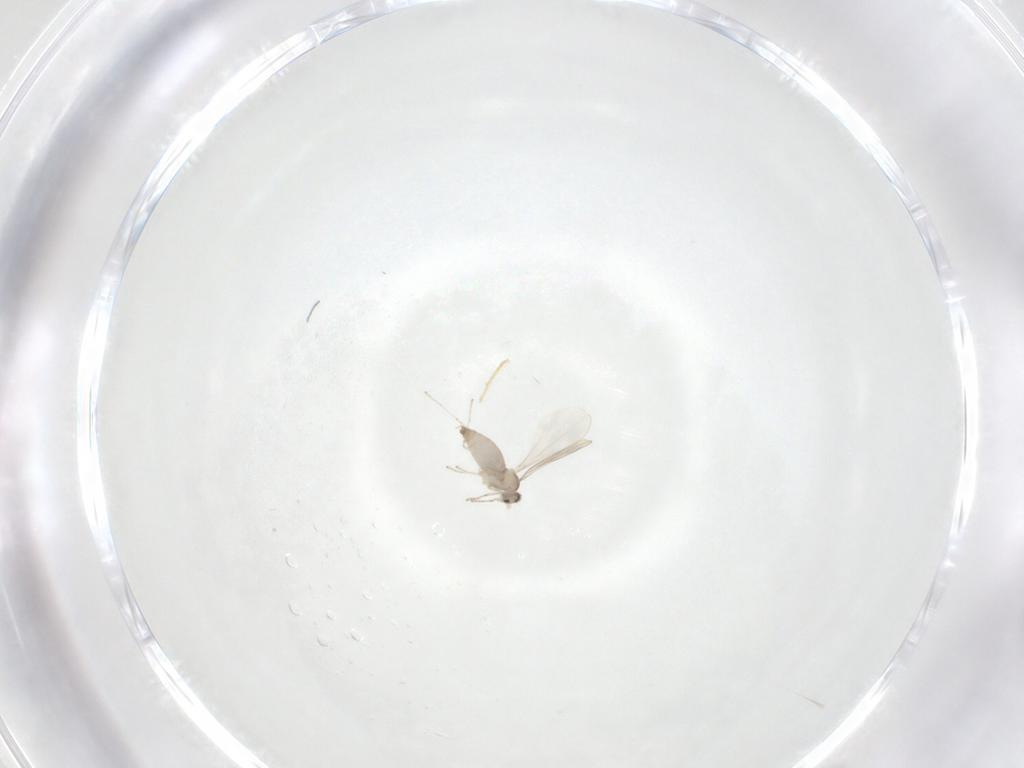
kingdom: Animalia
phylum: Arthropoda
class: Insecta
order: Diptera
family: Cecidomyiidae
